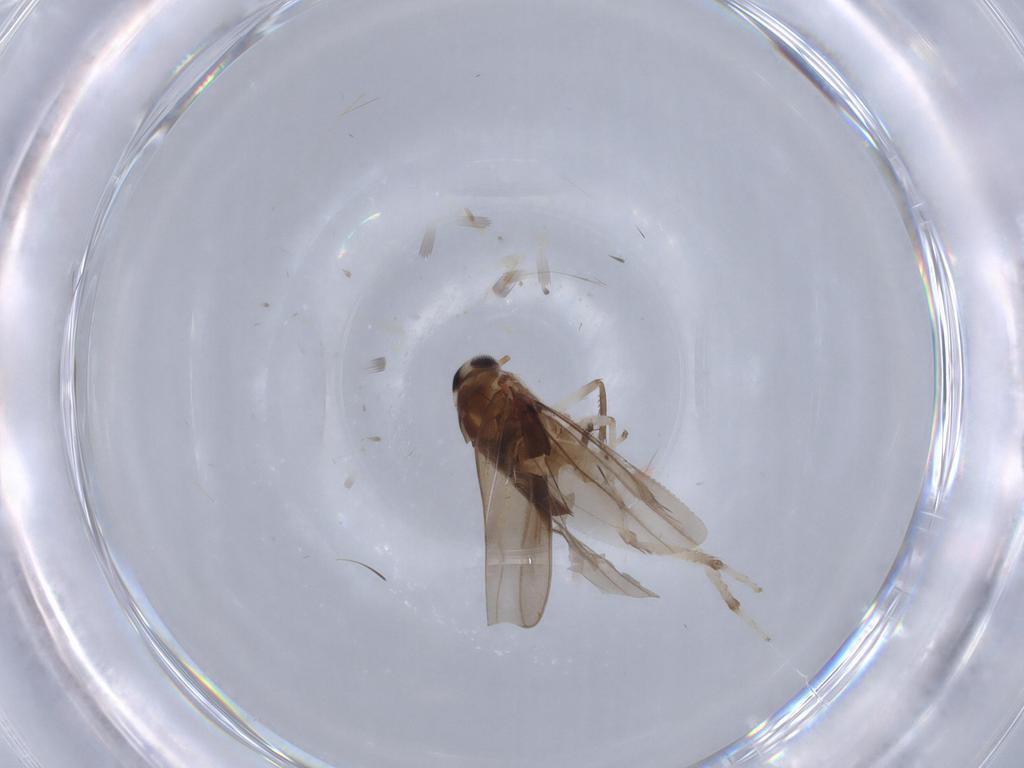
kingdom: Animalia
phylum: Arthropoda
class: Insecta
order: Hemiptera
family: Cicadellidae
